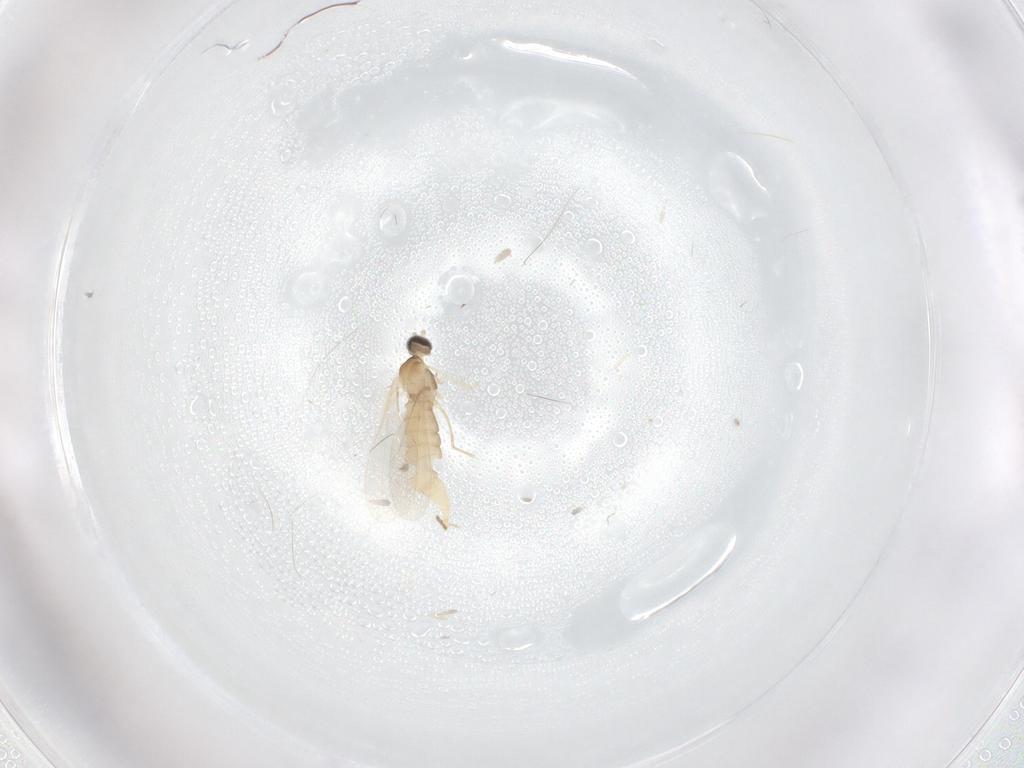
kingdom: Animalia
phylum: Arthropoda
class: Insecta
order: Diptera
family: Cecidomyiidae
